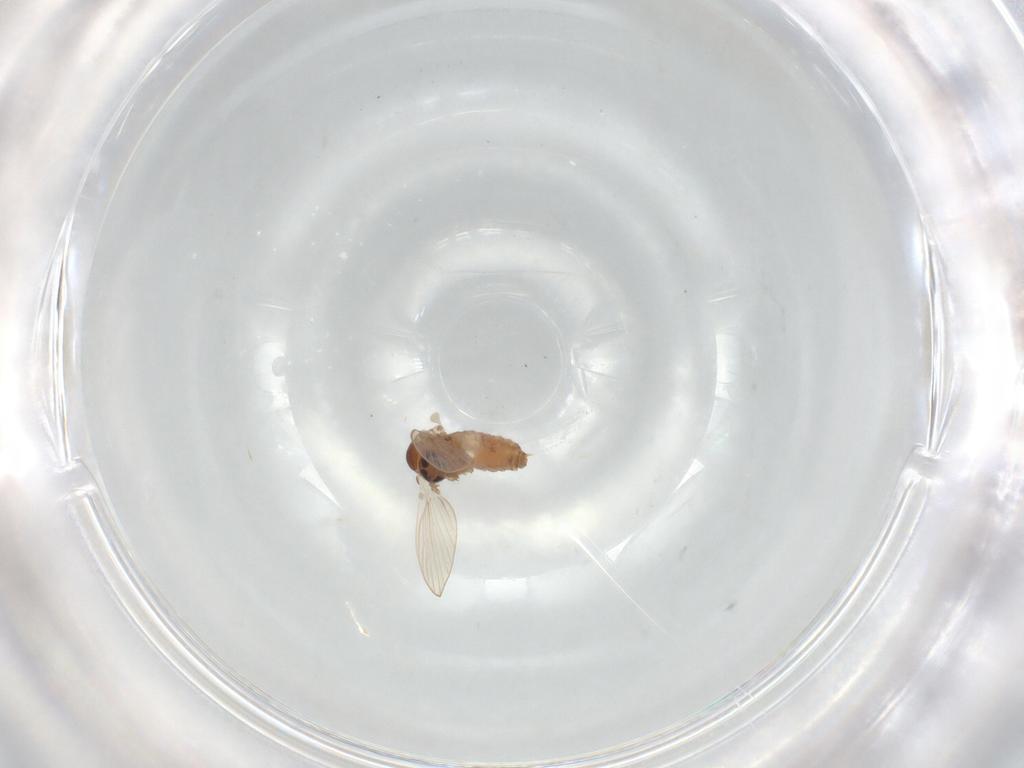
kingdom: Animalia
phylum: Arthropoda
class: Insecta
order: Diptera
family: Psychodidae
